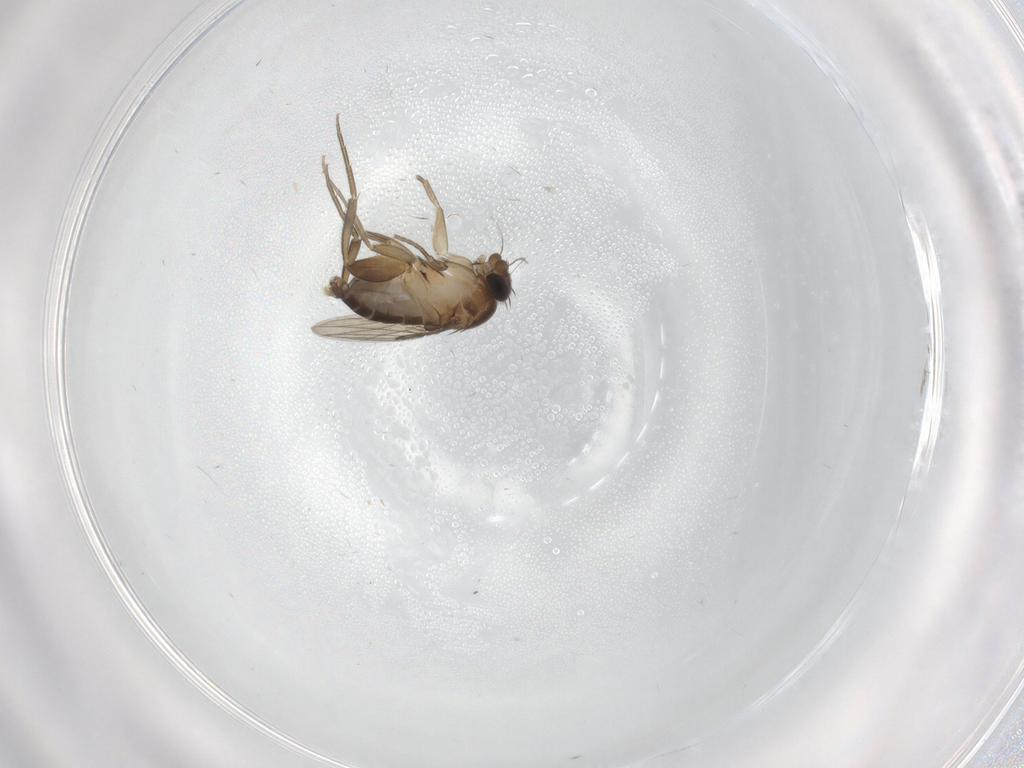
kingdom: Animalia
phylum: Arthropoda
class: Insecta
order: Diptera
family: Phoridae
